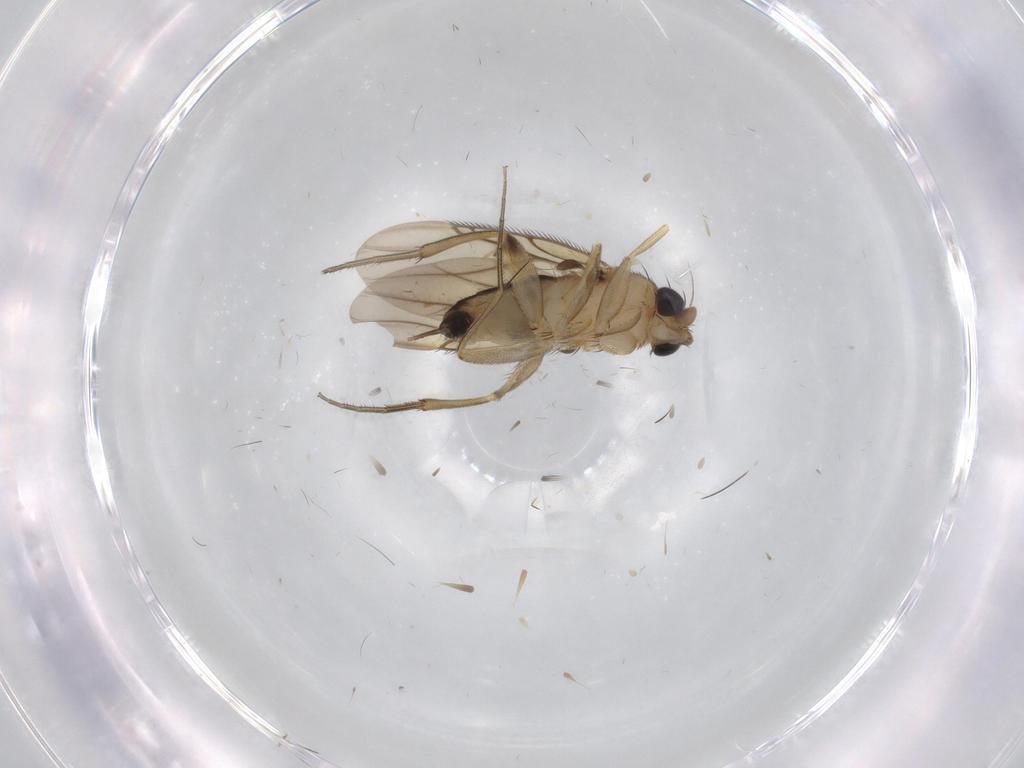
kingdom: Animalia
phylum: Arthropoda
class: Insecta
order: Diptera
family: Phoridae
